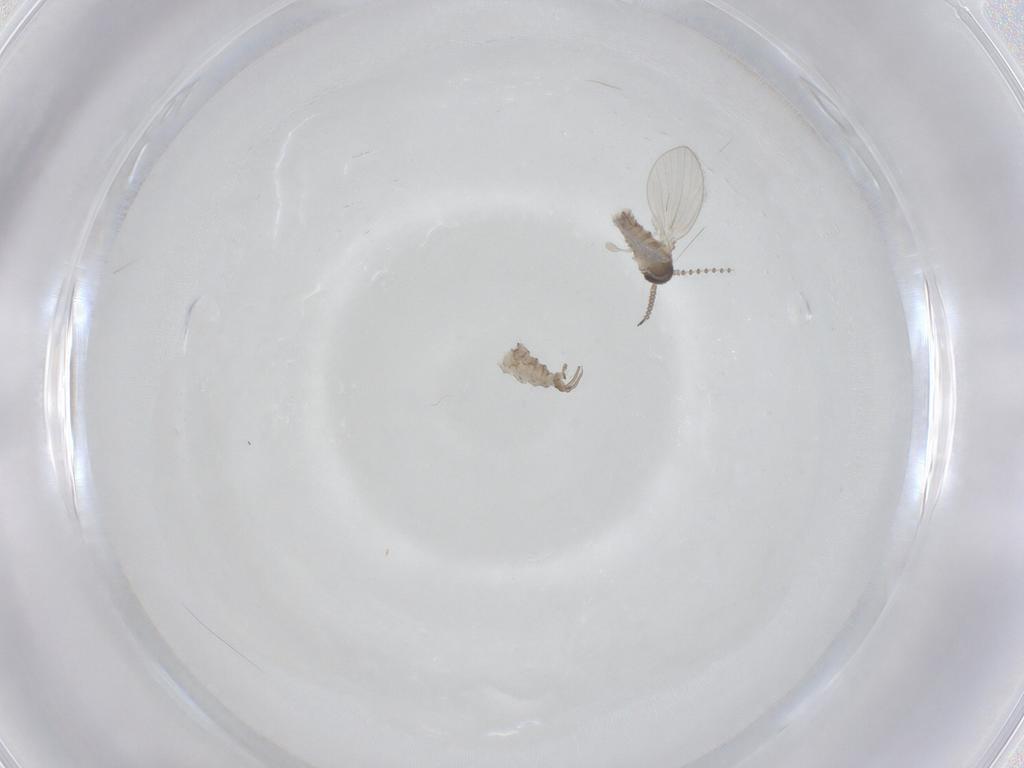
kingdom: Animalia
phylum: Arthropoda
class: Insecta
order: Diptera
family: Psychodidae
